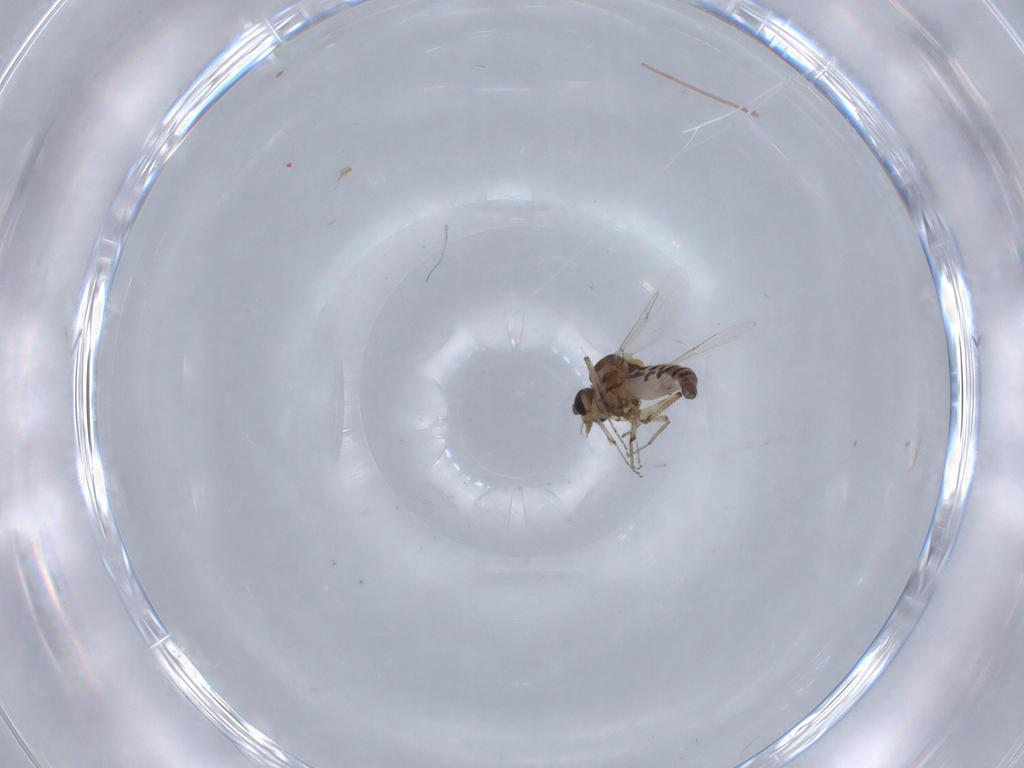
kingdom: Animalia
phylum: Arthropoda
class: Insecta
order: Diptera
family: Ceratopogonidae
